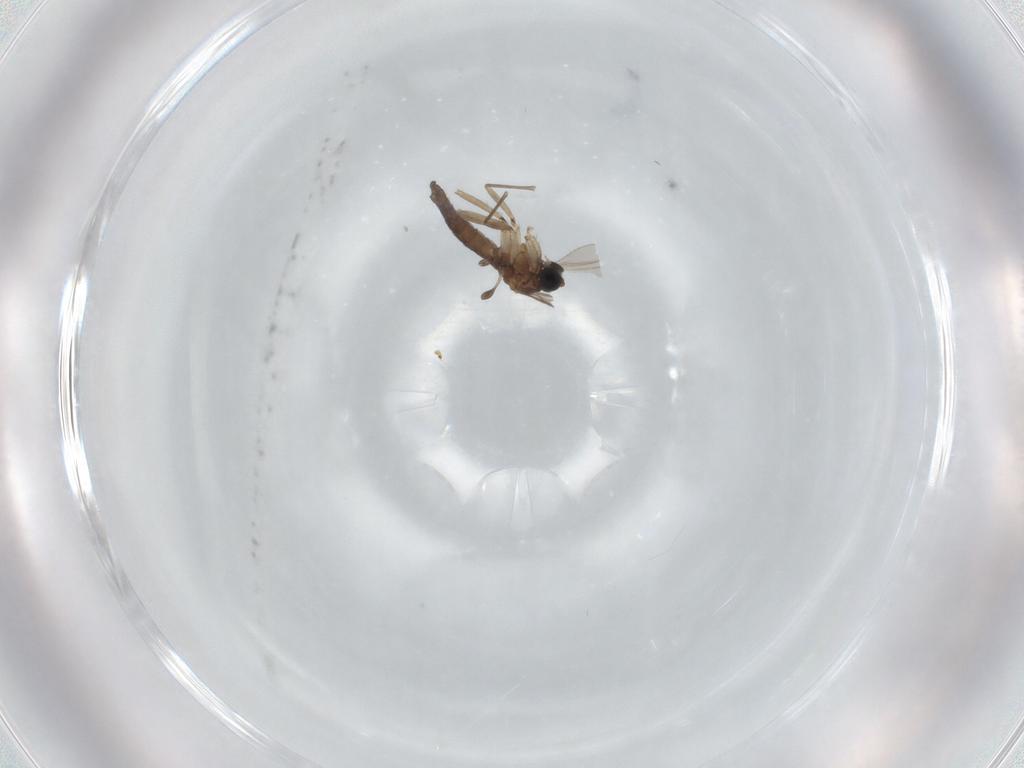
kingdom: Animalia
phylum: Arthropoda
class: Insecta
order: Diptera
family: Sciaridae
